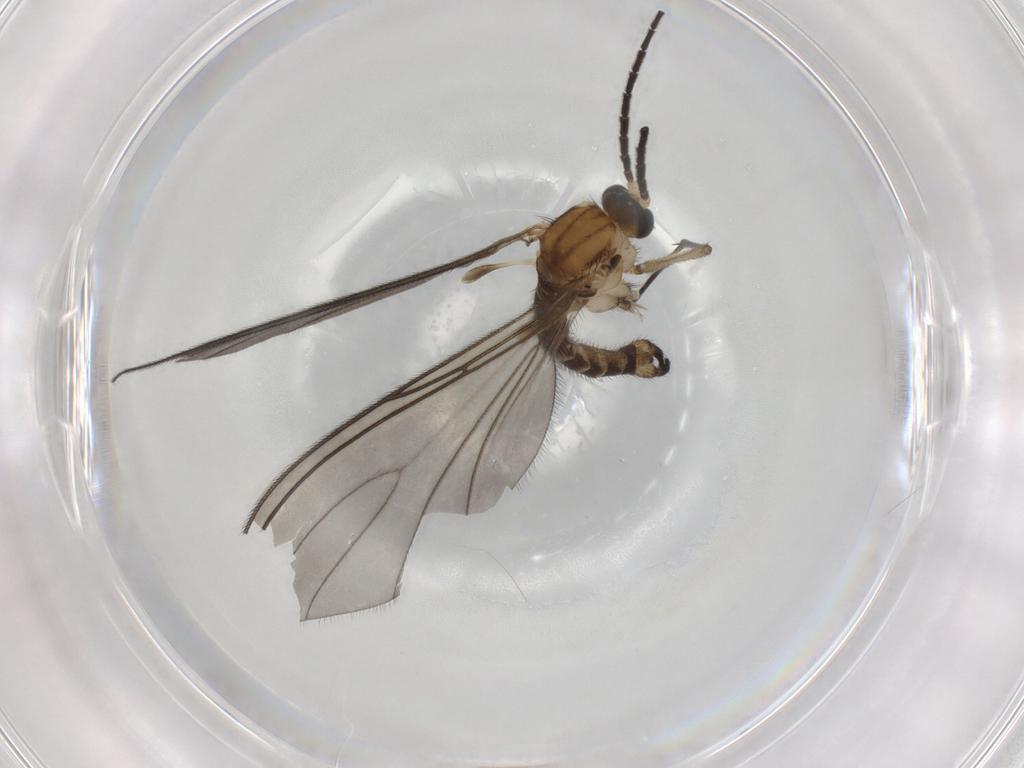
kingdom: Animalia
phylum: Arthropoda
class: Insecta
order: Diptera
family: Sciaridae
